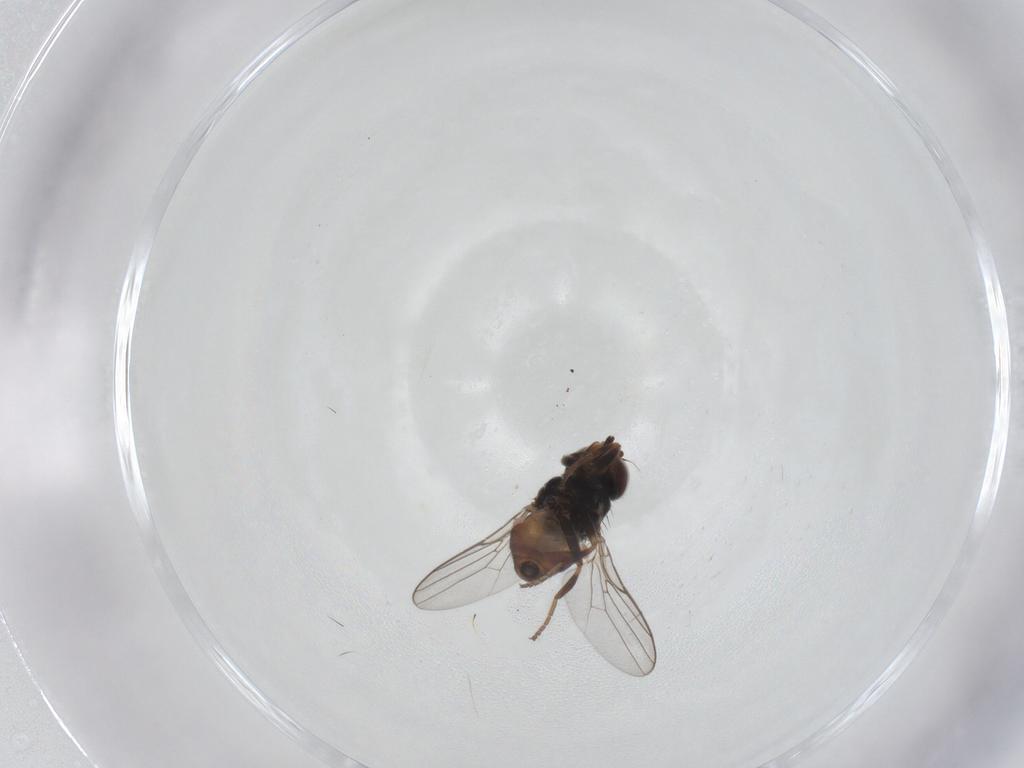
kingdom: Animalia
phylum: Arthropoda
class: Insecta
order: Diptera
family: Chloropidae
